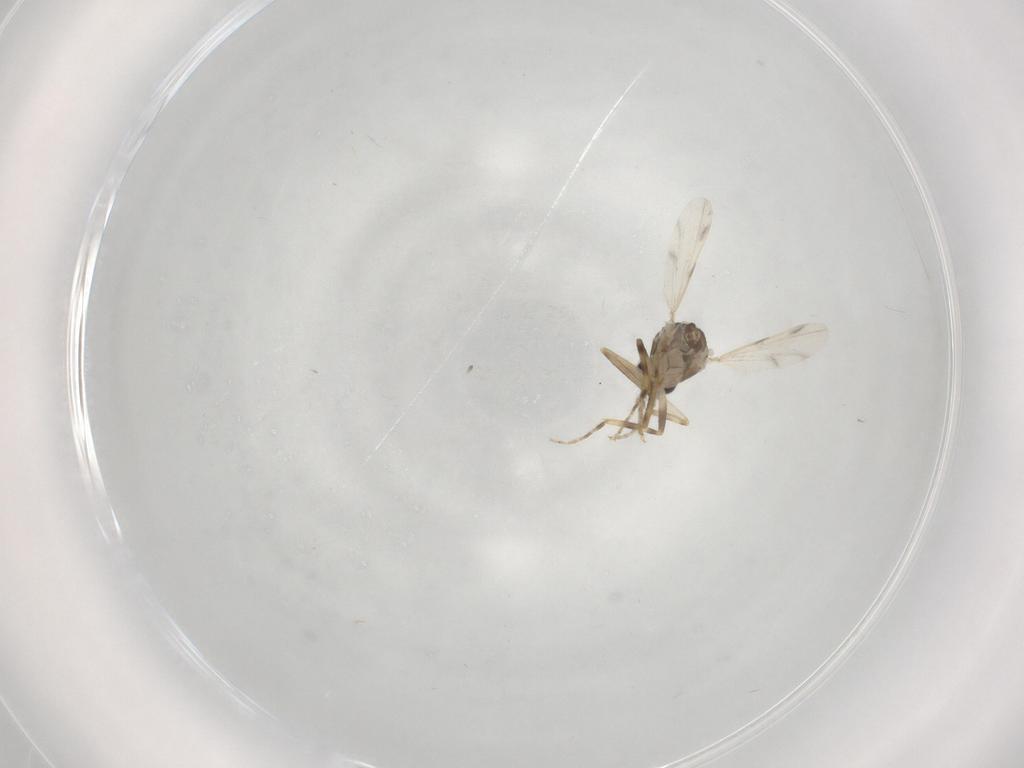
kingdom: Animalia
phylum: Arthropoda
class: Insecta
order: Diptera
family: Ceratopogonidae
